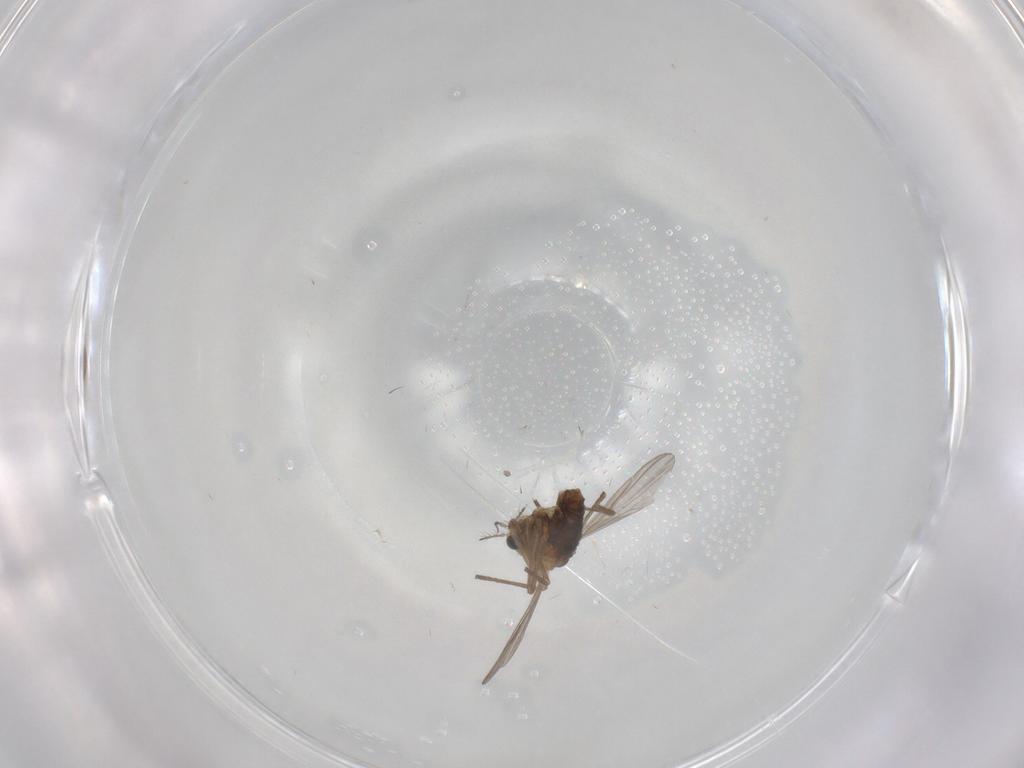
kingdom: Animalia
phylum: Arthropoda
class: Insecta
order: Diptera
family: Chironomidae
